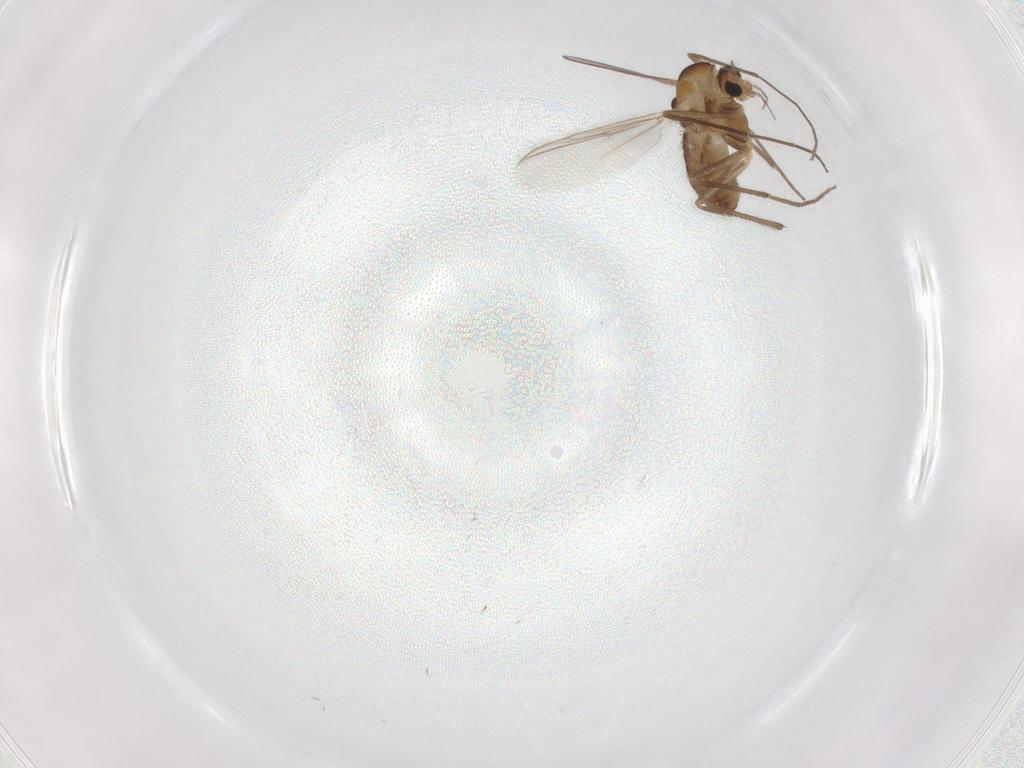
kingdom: Animalia
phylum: Arthropoda
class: Insecta
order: Diptera
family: Chironomidae
